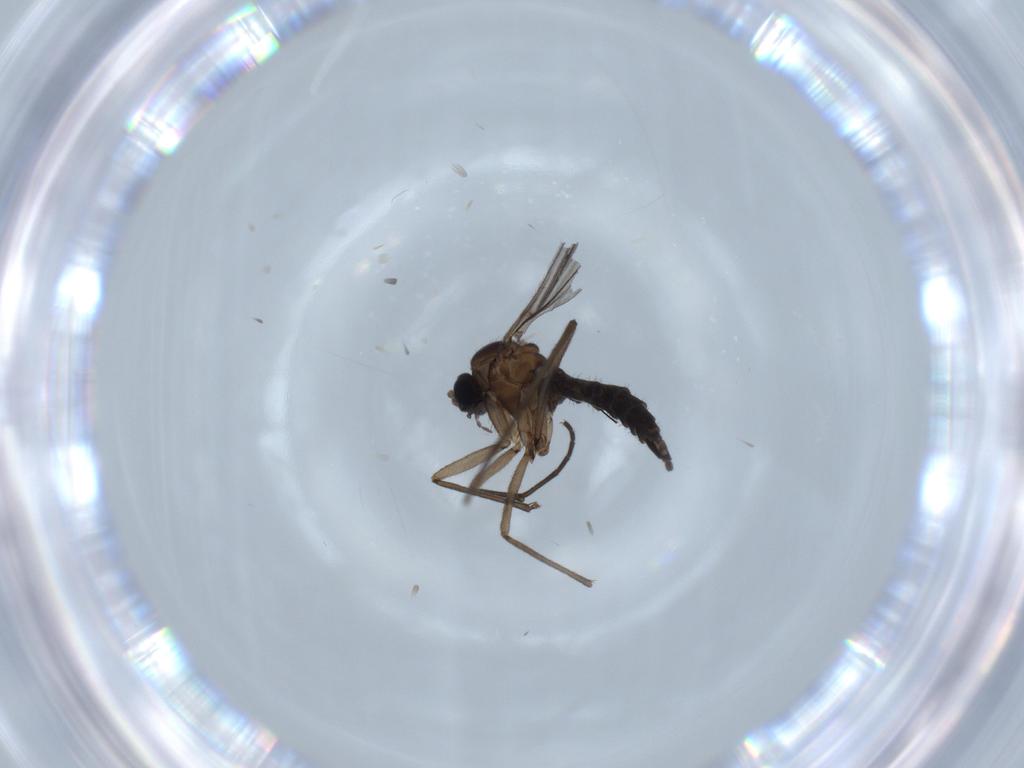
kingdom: Animalia
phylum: Arthropoda
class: Insecta
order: Diptera
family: Sciaridae
